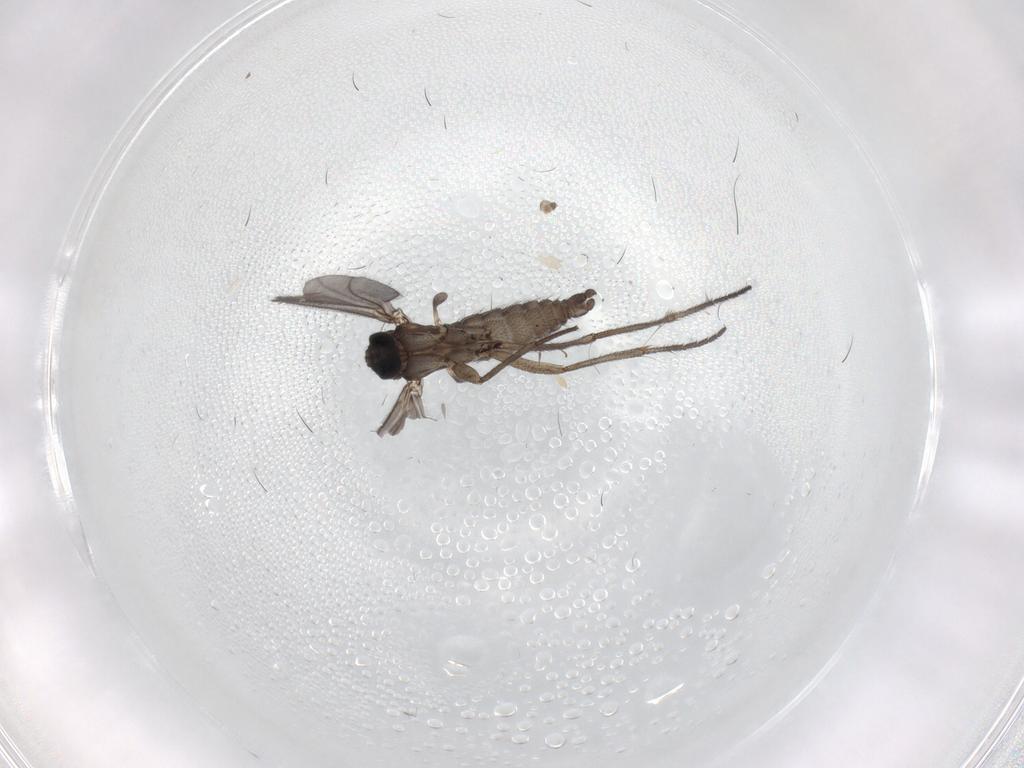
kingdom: Animalia
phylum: Arthropoda
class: Insecta
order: Diptera
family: Sciaridae
